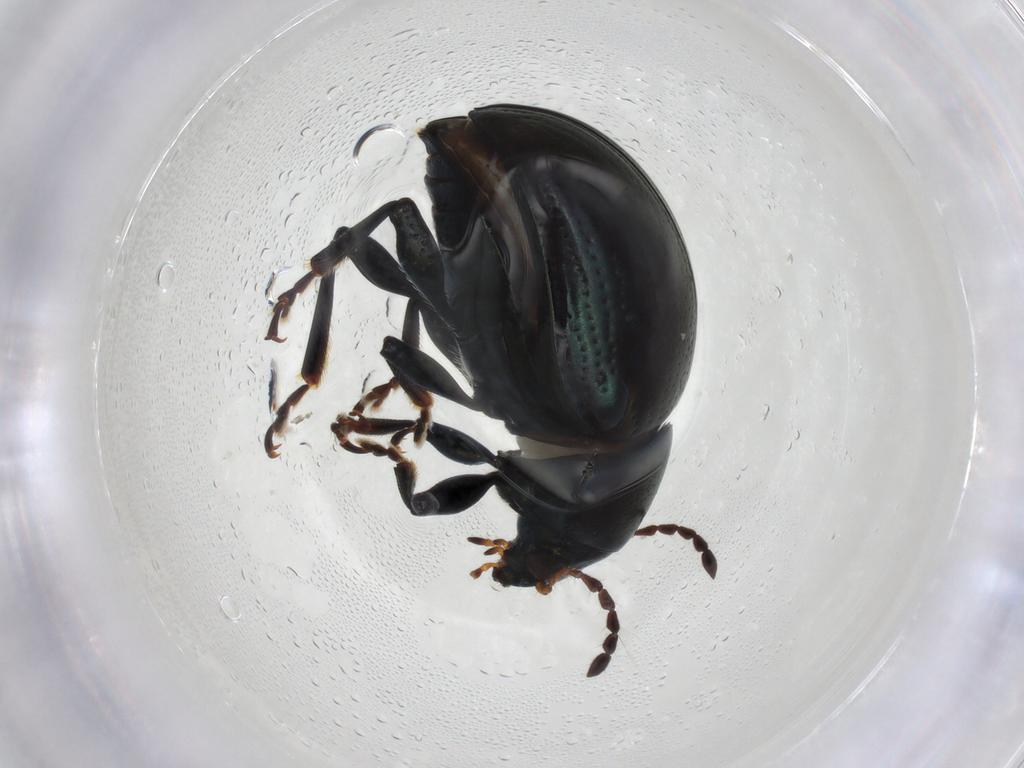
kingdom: Animalia
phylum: Arthropoda
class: Insecta
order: Coleoptera
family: Chrysomelidae
